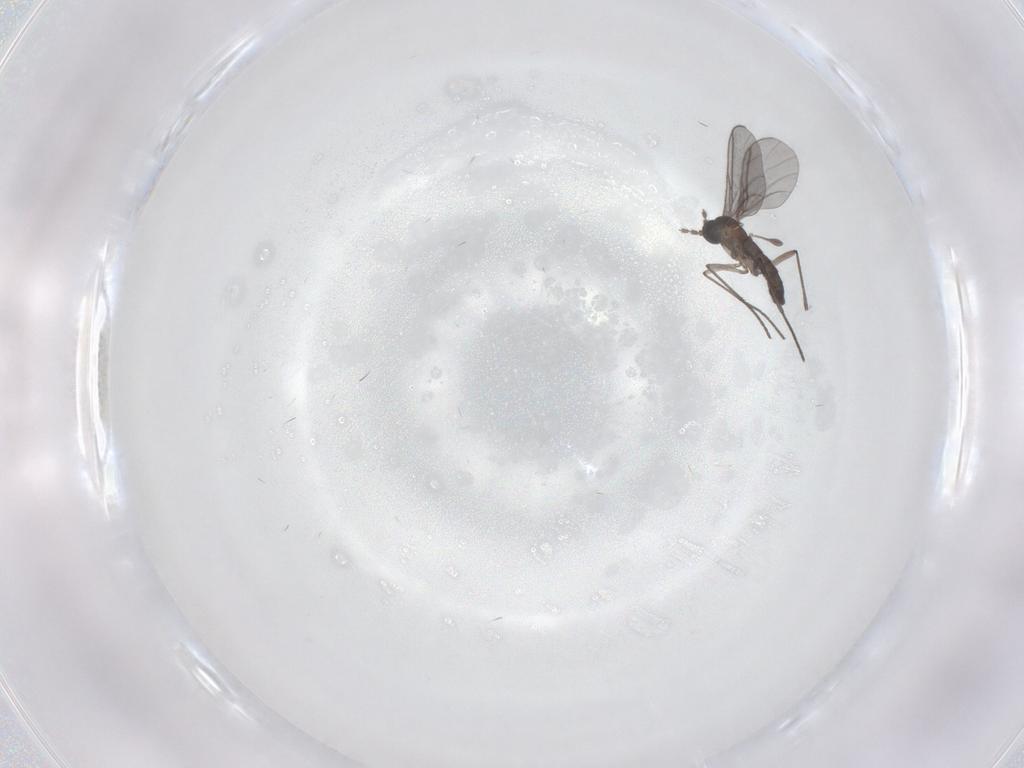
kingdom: Animalia
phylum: Arthropoda
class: Insecta
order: Diptera
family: Sciaridae
